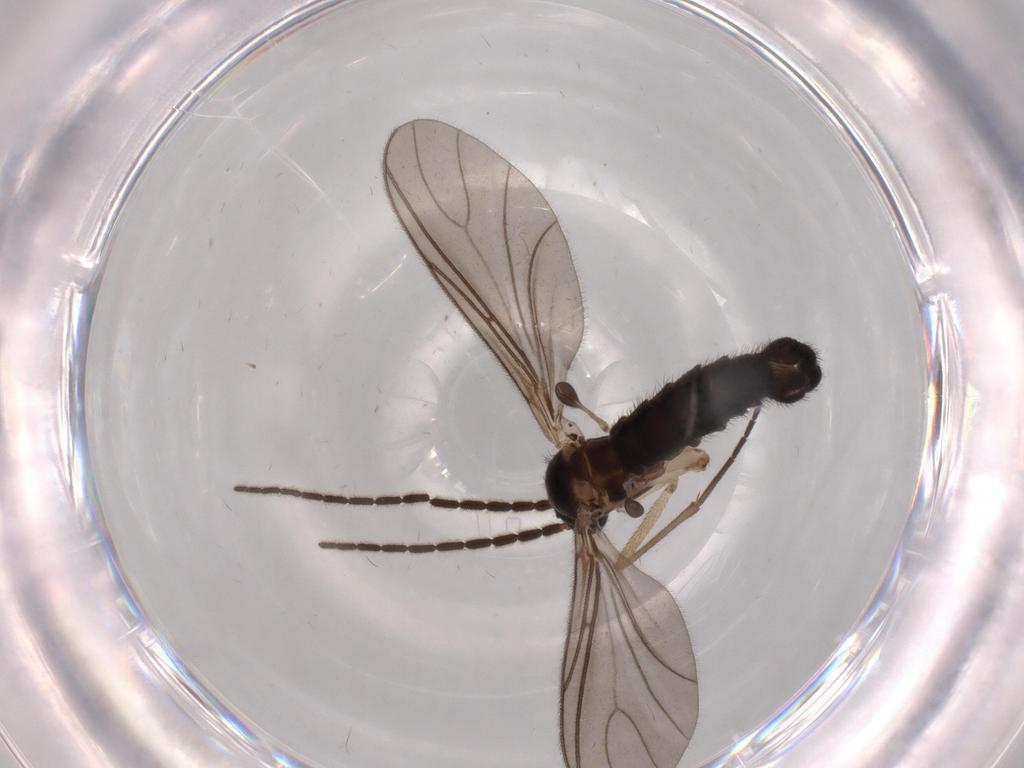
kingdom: Animalia
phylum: Arthropoda
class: Insecta
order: Diptera
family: Sciaridae
